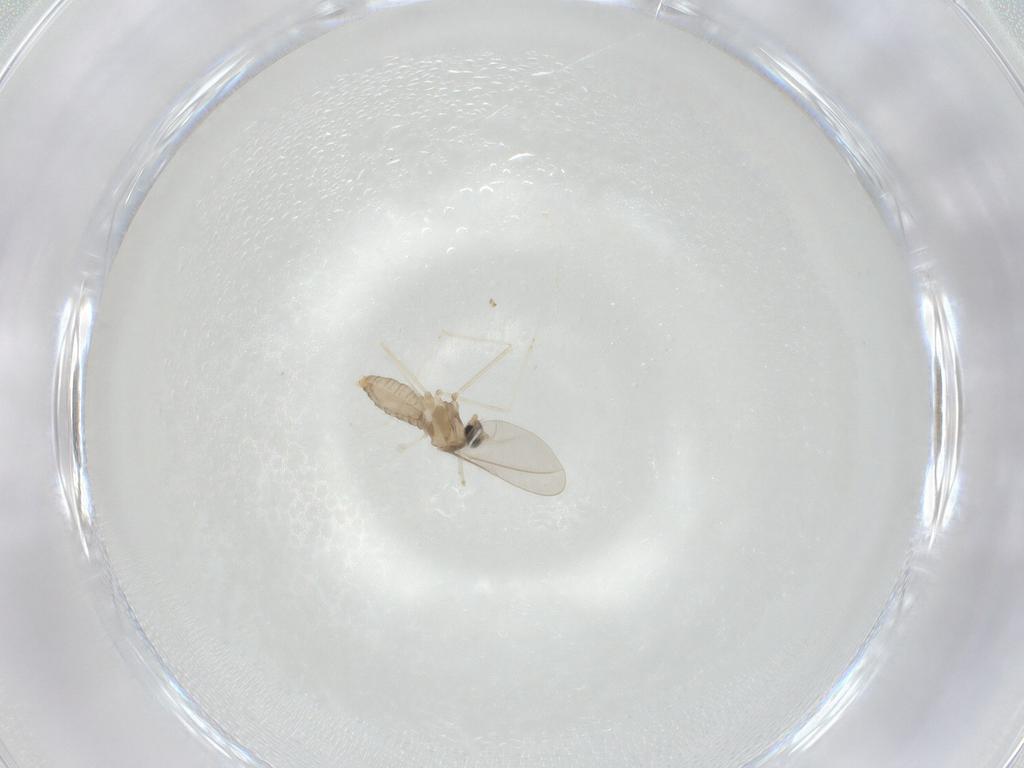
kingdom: Animalia
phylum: Arthropoda
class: Insecta
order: Diptera
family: Cecidomyiidae
